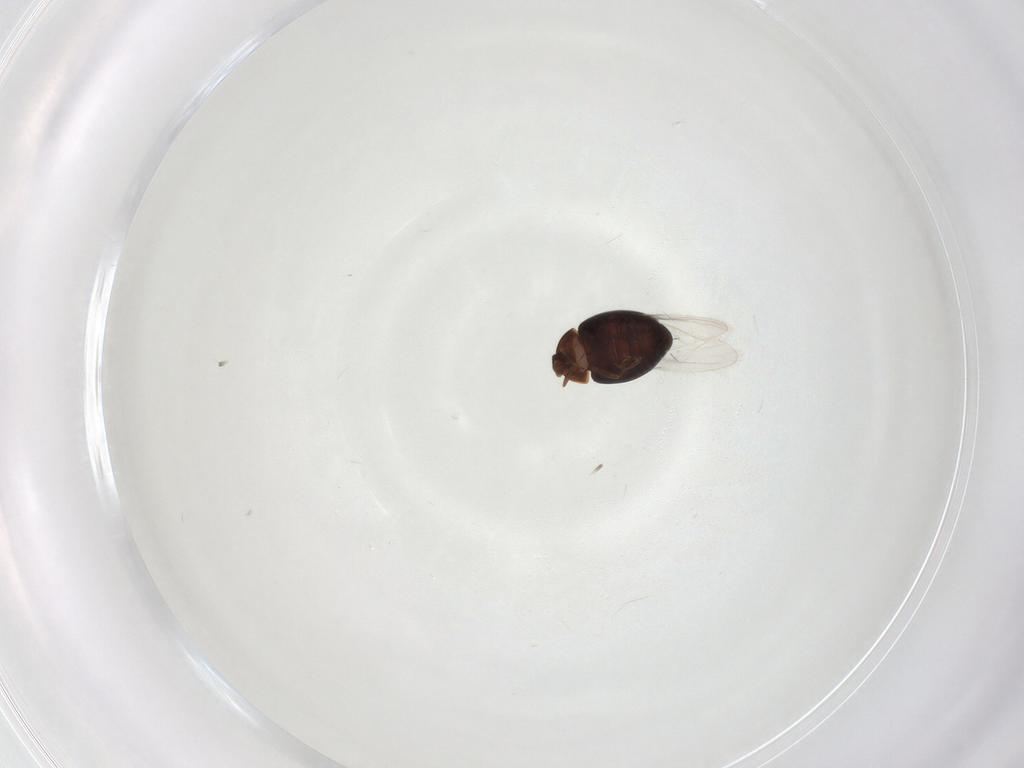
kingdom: Animalia
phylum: Arthropoda
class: Insecta
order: Coleoptera
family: Corylophidae
